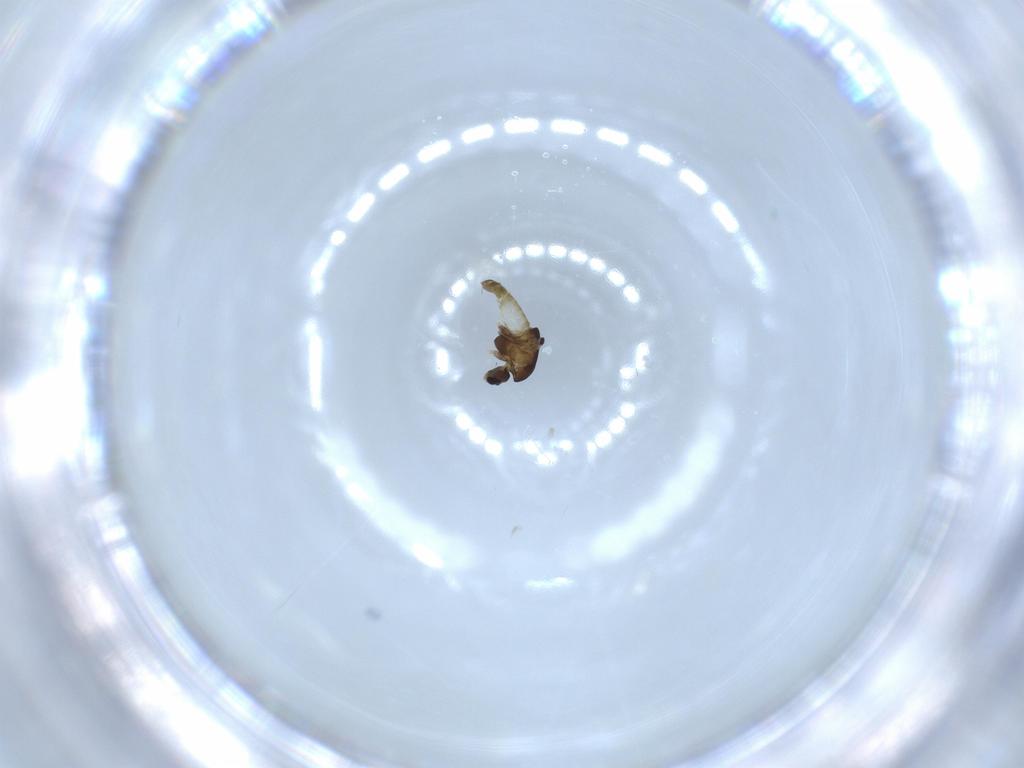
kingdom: Animalia
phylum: Arthropoda
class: Insecta
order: Diptera
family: Chironomidae
